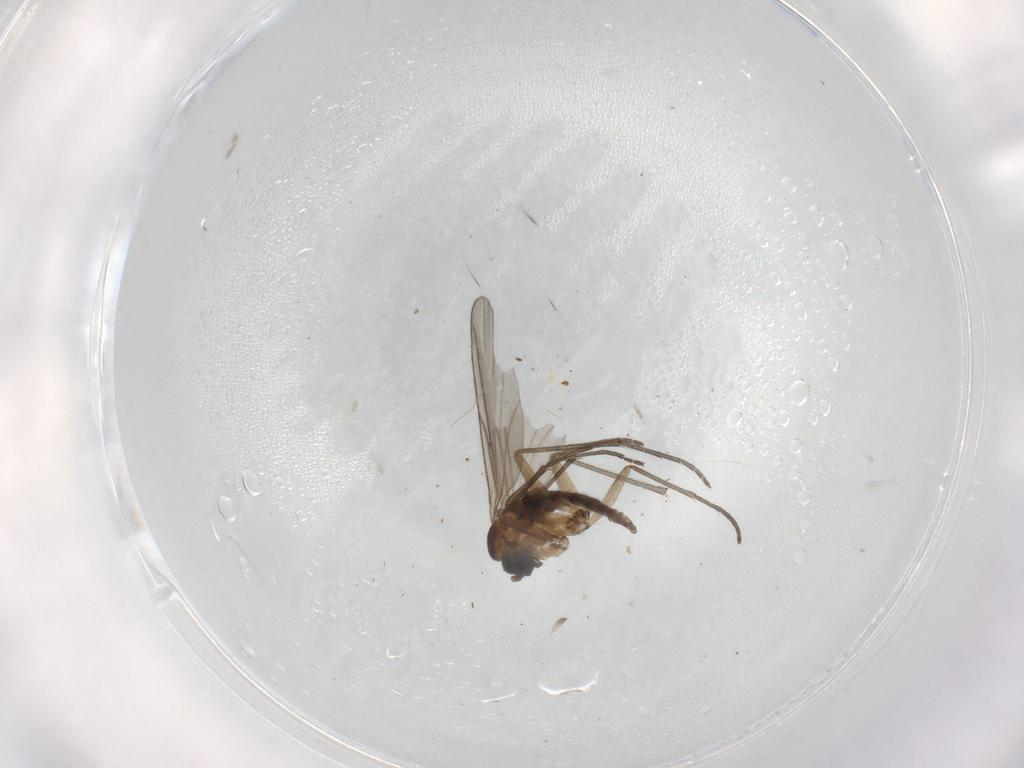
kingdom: Animalia
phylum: Arthropoda
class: Insecta
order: Diptera
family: Sciaridae
